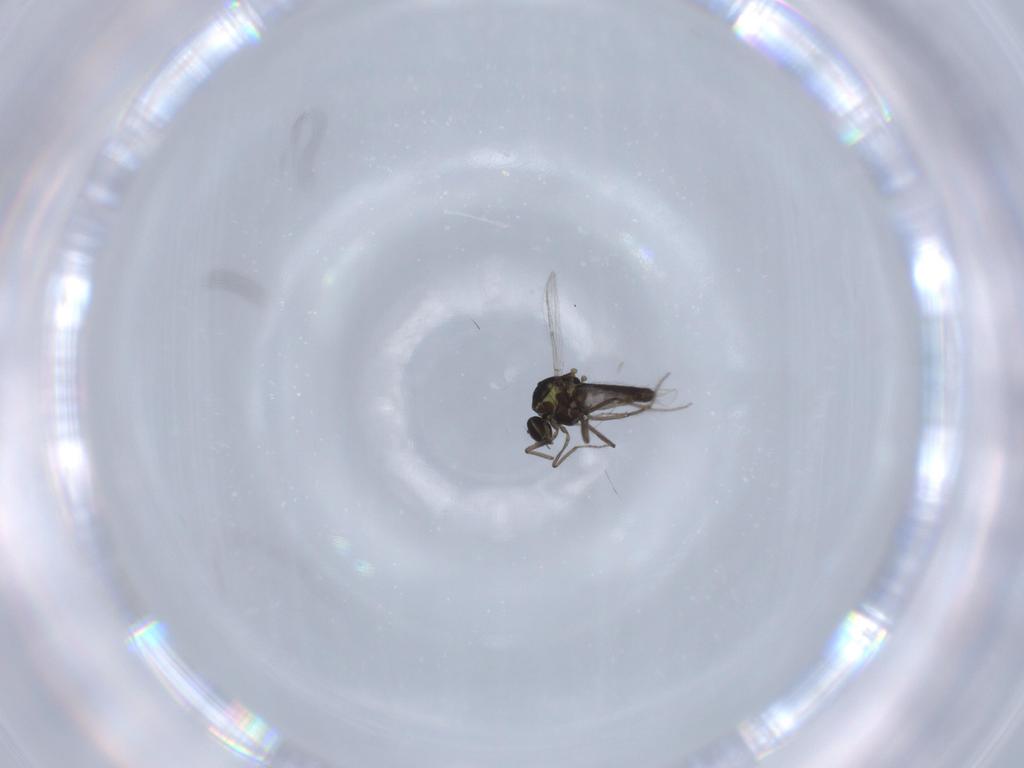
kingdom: Animalia
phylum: Arthropoda
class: Insecta
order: Diptera
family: Ceratopogonidae
